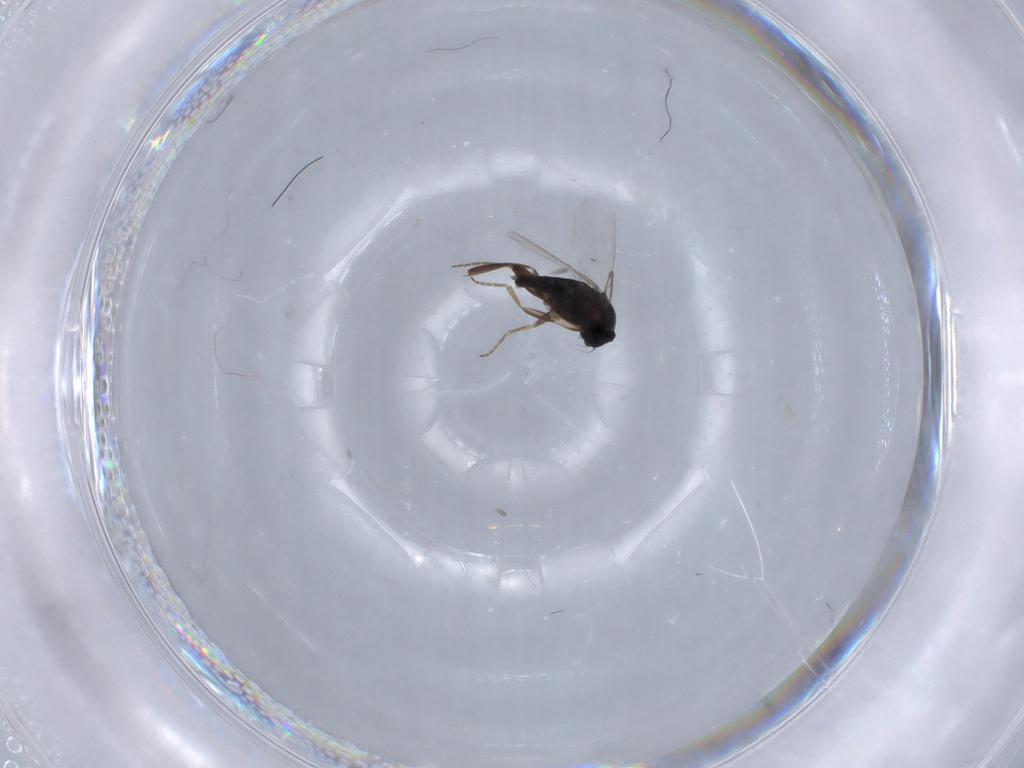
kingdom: Animalia
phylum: Arthropoda
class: Insecta
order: Diptera
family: Phoridae
